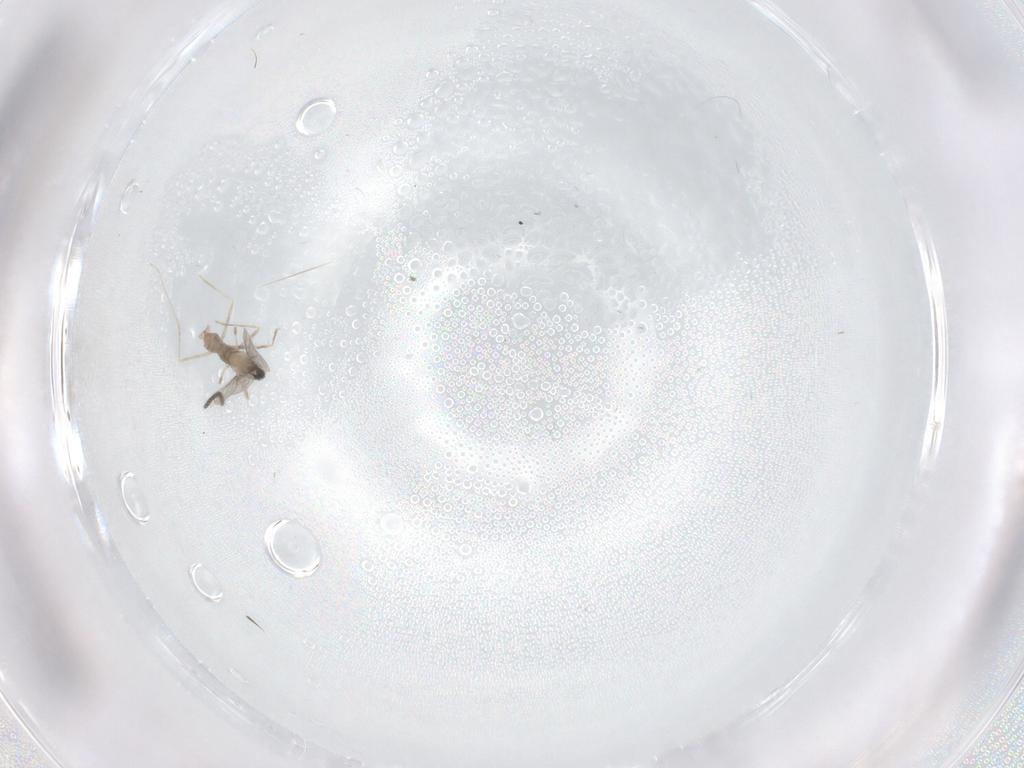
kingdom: Animalia
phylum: Arthropoda
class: Insecta
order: Diptera
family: Sciaridae
